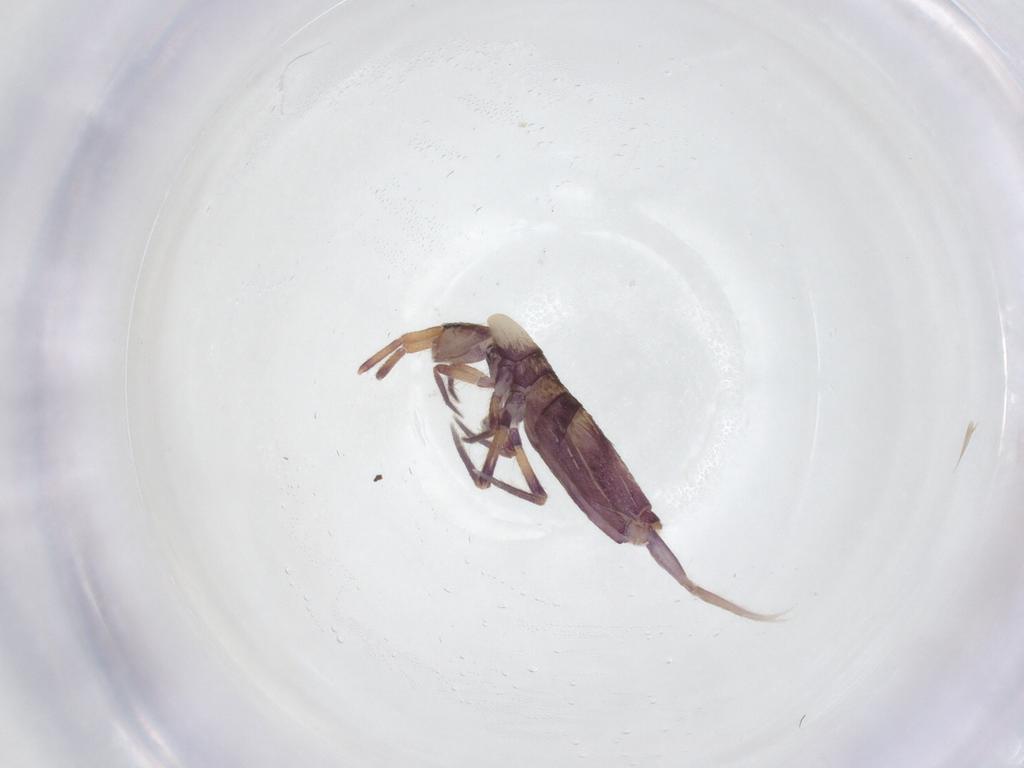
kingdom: Animalia
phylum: Arthropoda
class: Collembola
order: Entomobryomorpha
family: Entomobryidae
